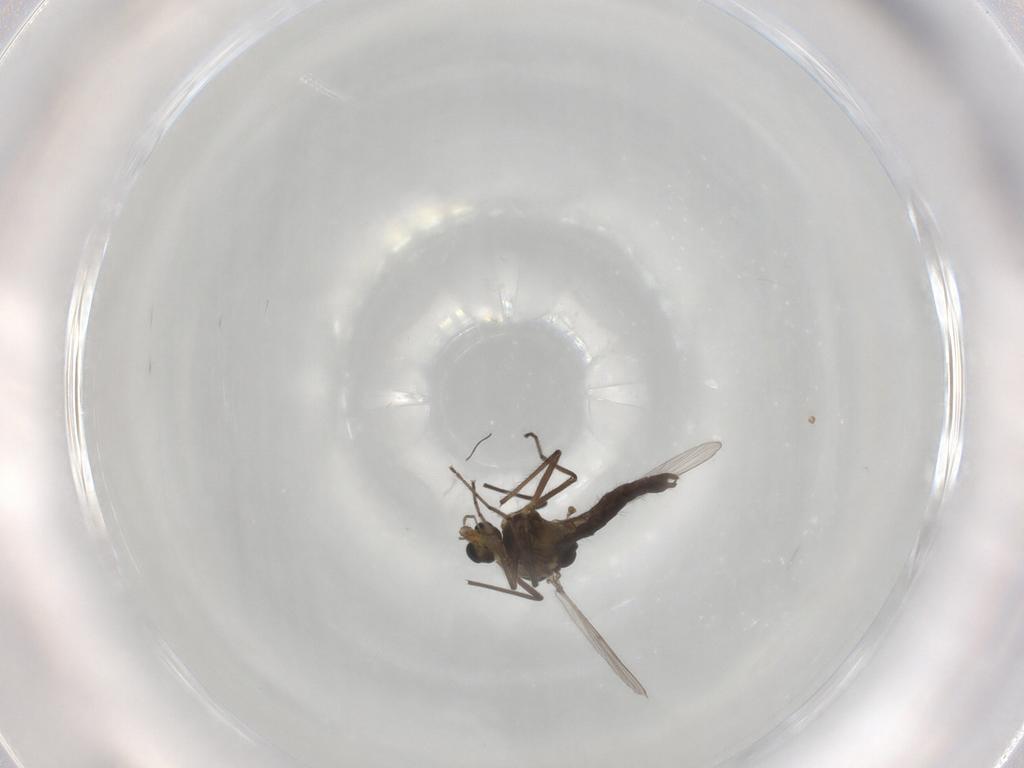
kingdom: Animalia
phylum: Arthropoda
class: Insecta
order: Diptera
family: Chironomidae
